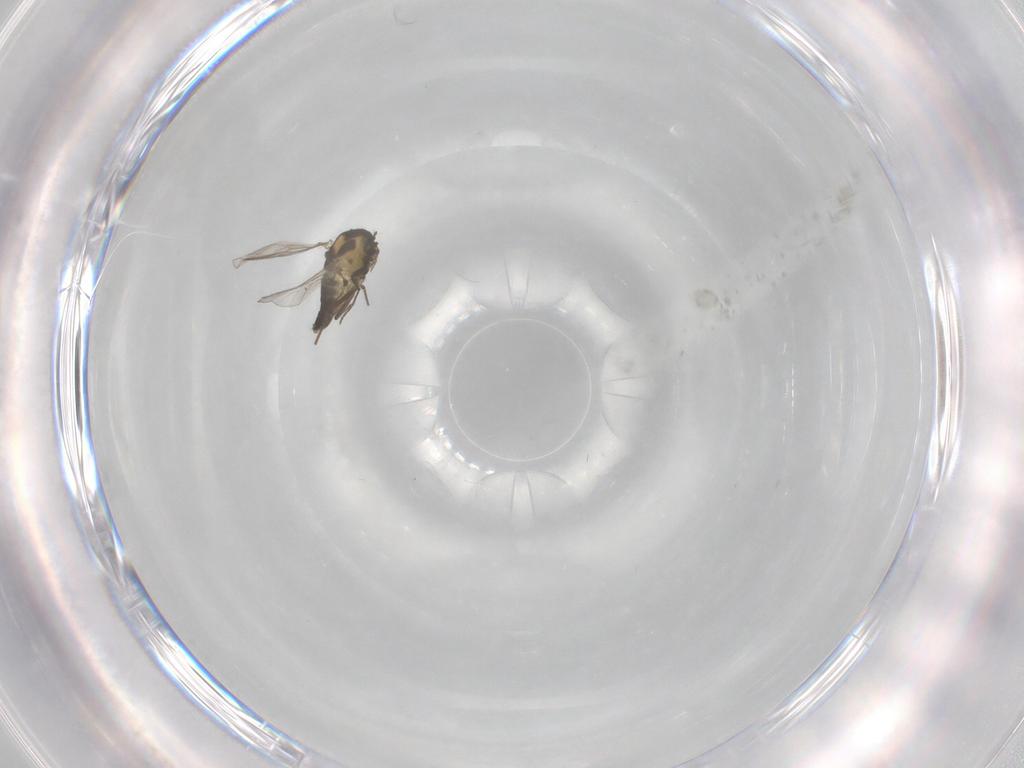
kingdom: Animalia
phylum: Arthropoda
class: Insecta
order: Diptera
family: Chironomidae
